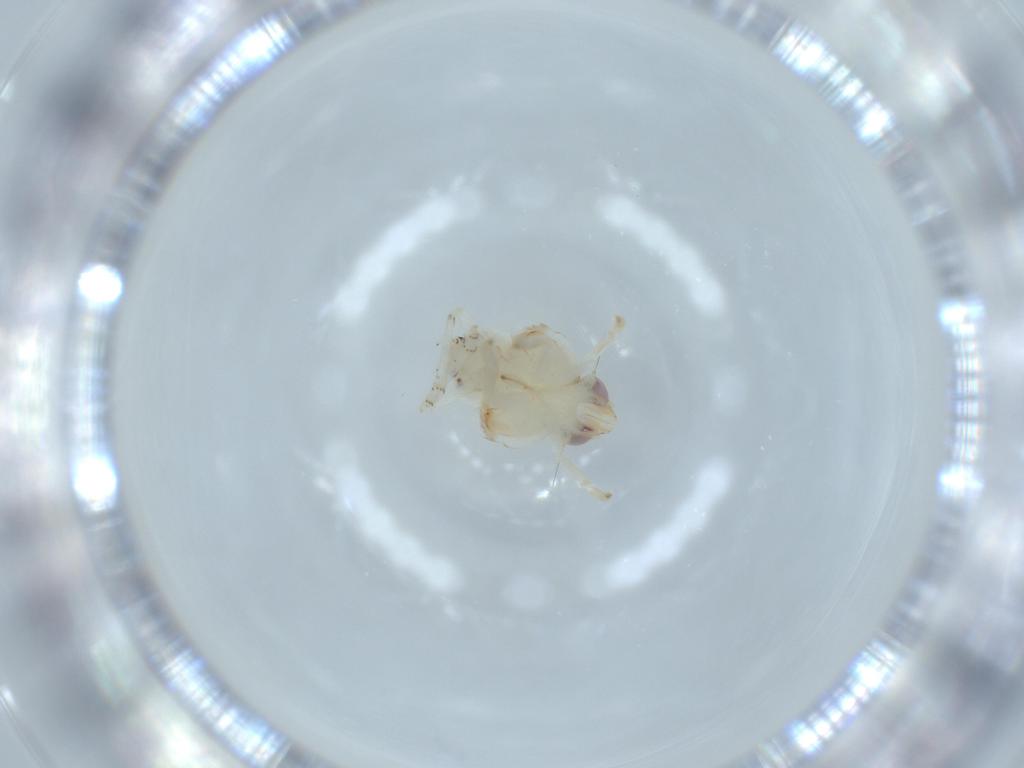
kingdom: Animalia
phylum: Arthropoda
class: Insecta
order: Hemiptera
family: Nogodinidae
